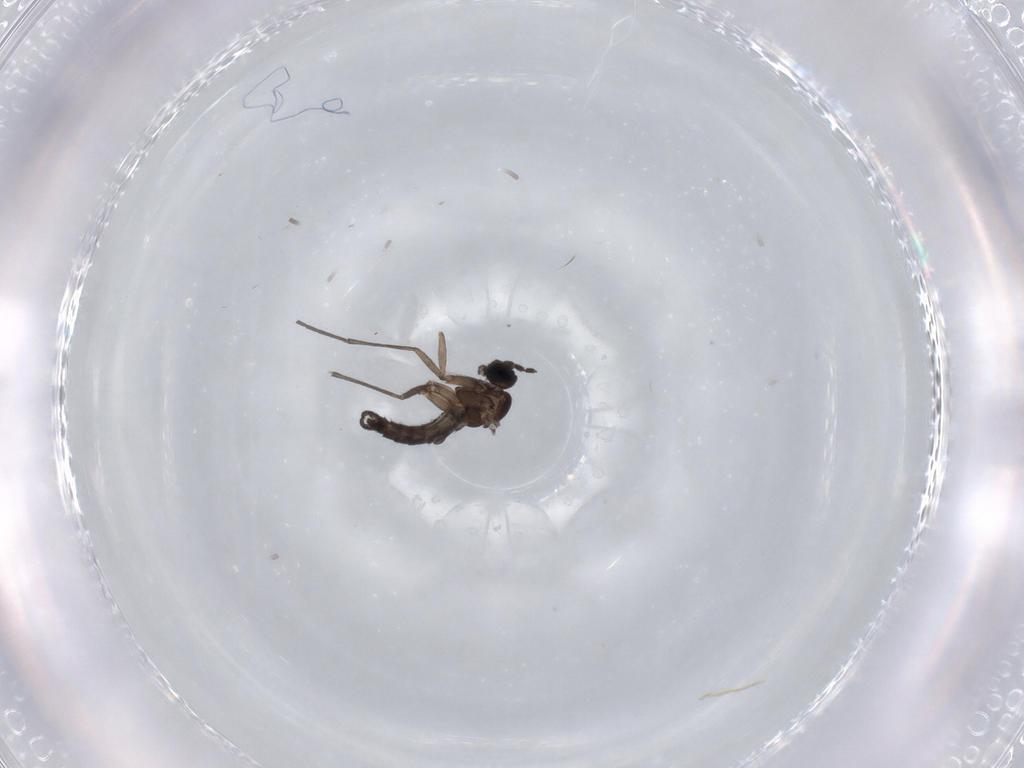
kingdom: Animalia
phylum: Arthropoda
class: Insecta
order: Diptera
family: Sciaridae
